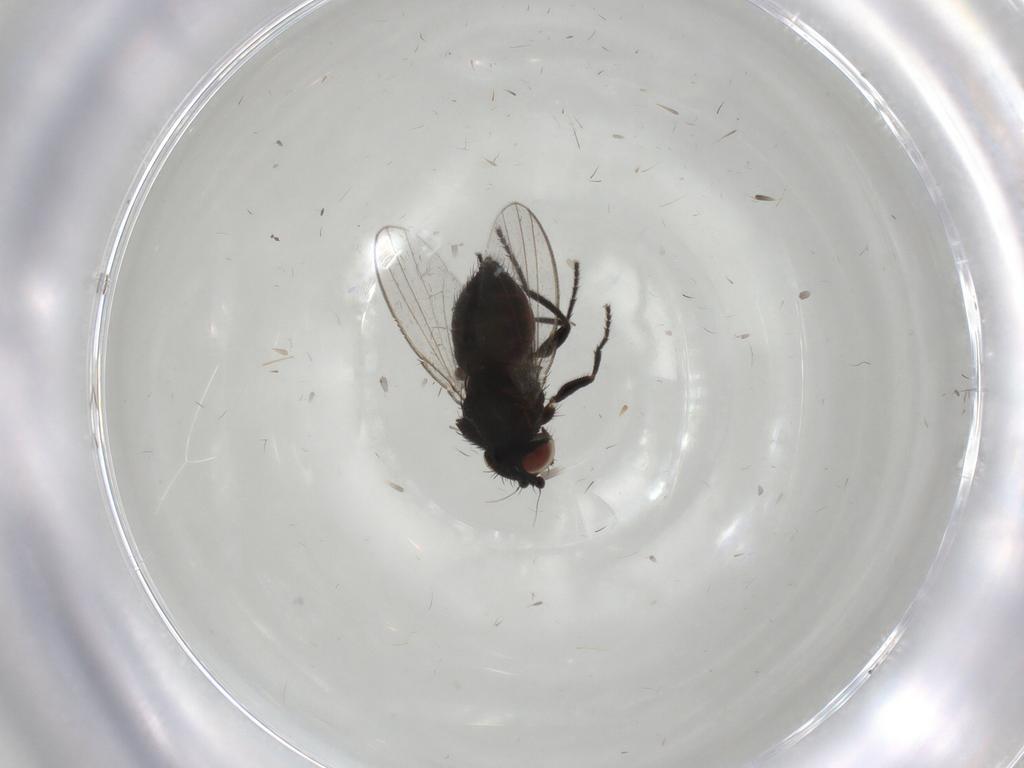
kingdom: Animalia
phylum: Arthropoda
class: Insecta
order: Diptera
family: Milichiidae
